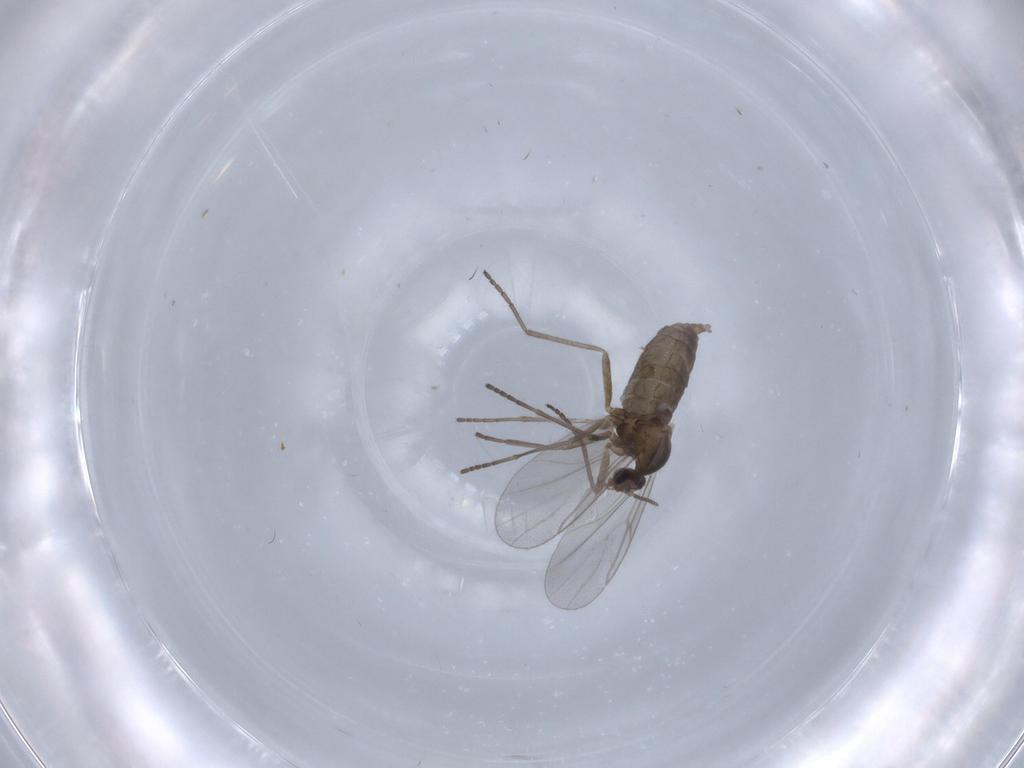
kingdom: Animalia
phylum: Arthropoda
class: Insecta
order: Diptera
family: Cecidomyiidae
